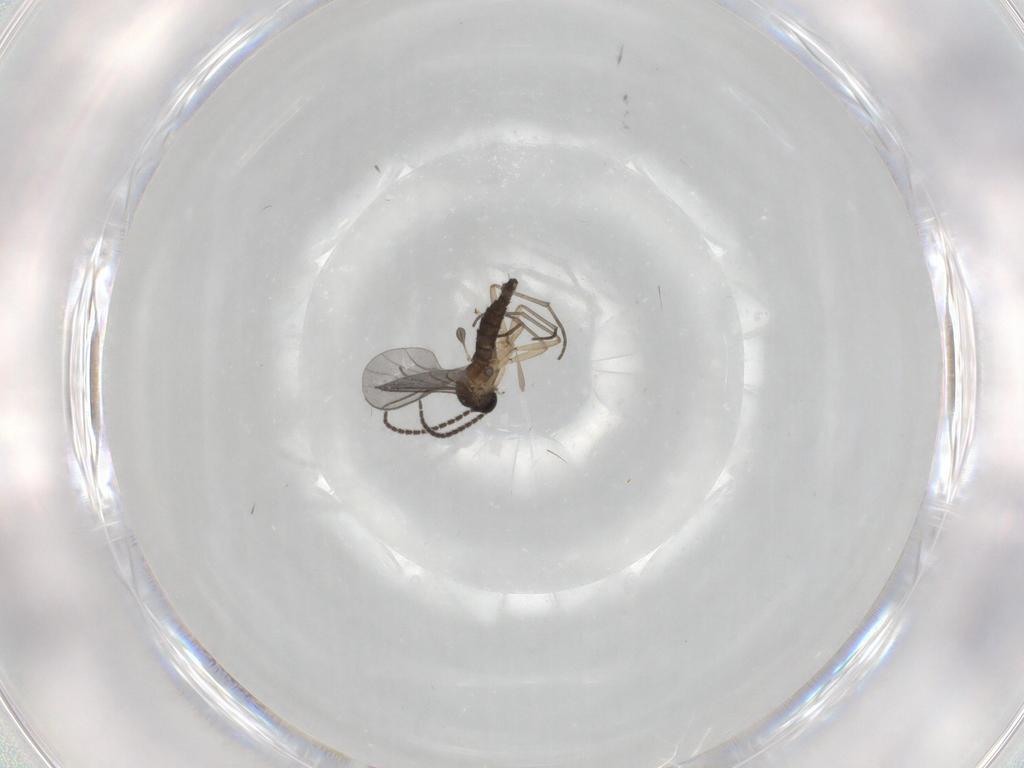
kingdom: Animalia
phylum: Arthropoda
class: Insecta
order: Diptera
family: Sciaridae
